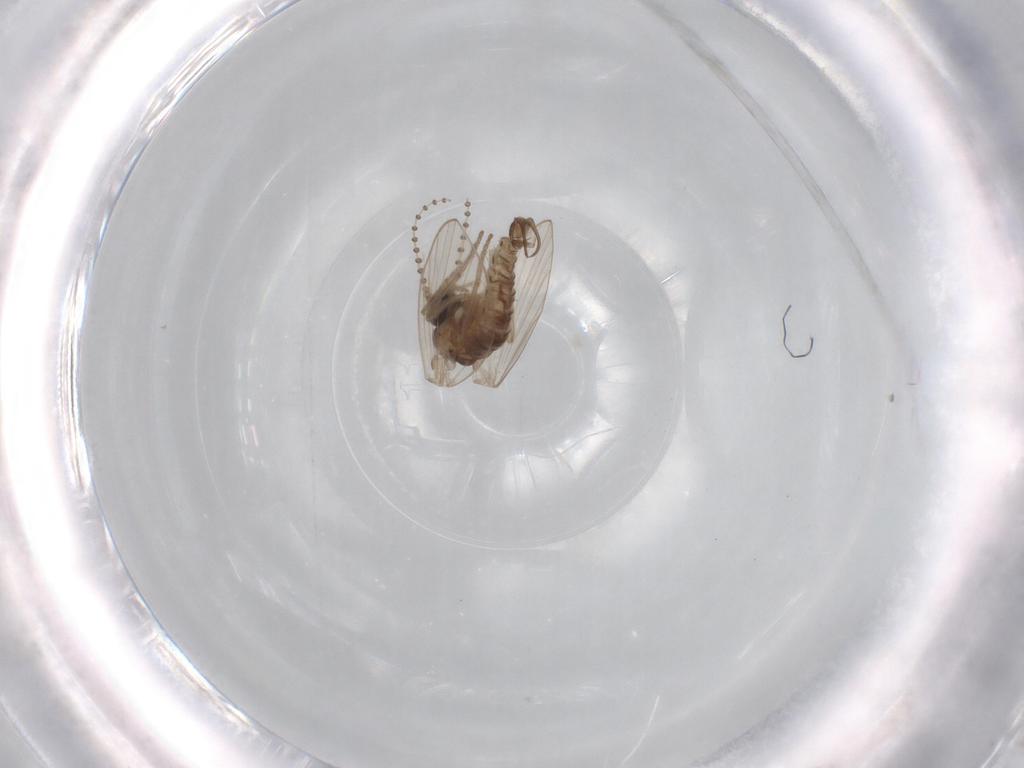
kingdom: Animalia
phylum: Arthropoda
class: Insecta
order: Diptera
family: Psychodidae
